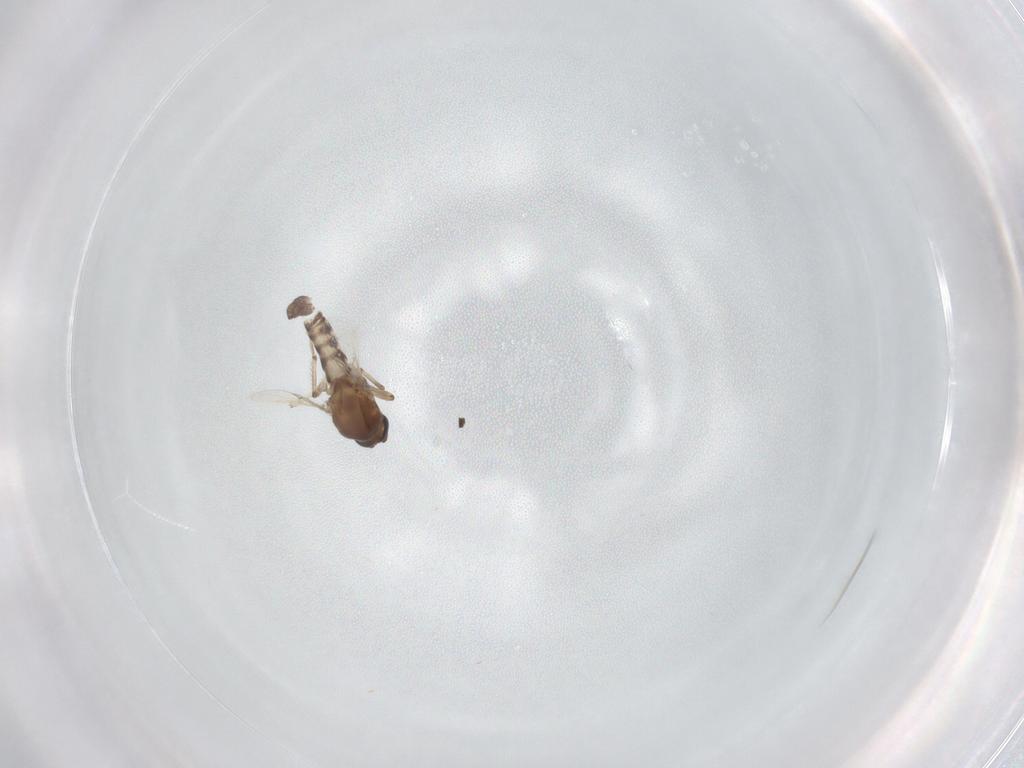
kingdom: Animalia
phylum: Arthropoda
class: Insecta
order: Diptera
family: Ceratopogonidae
